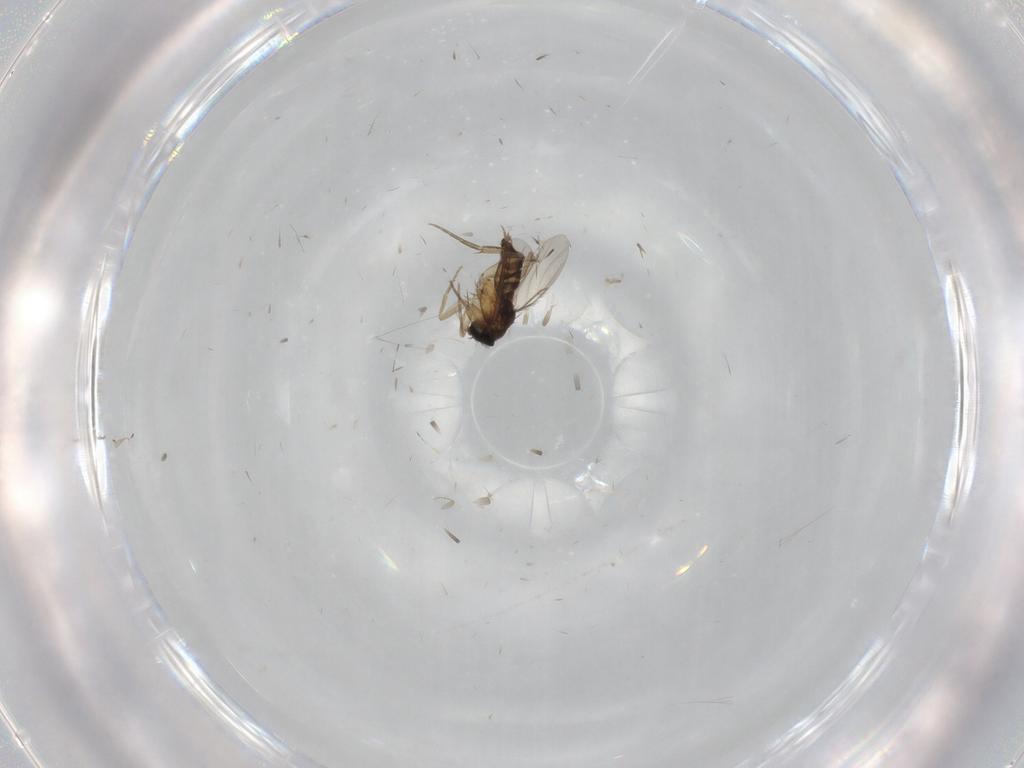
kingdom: Animalia
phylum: Arthropoda
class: Insecta
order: Diptera
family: Phoridae
